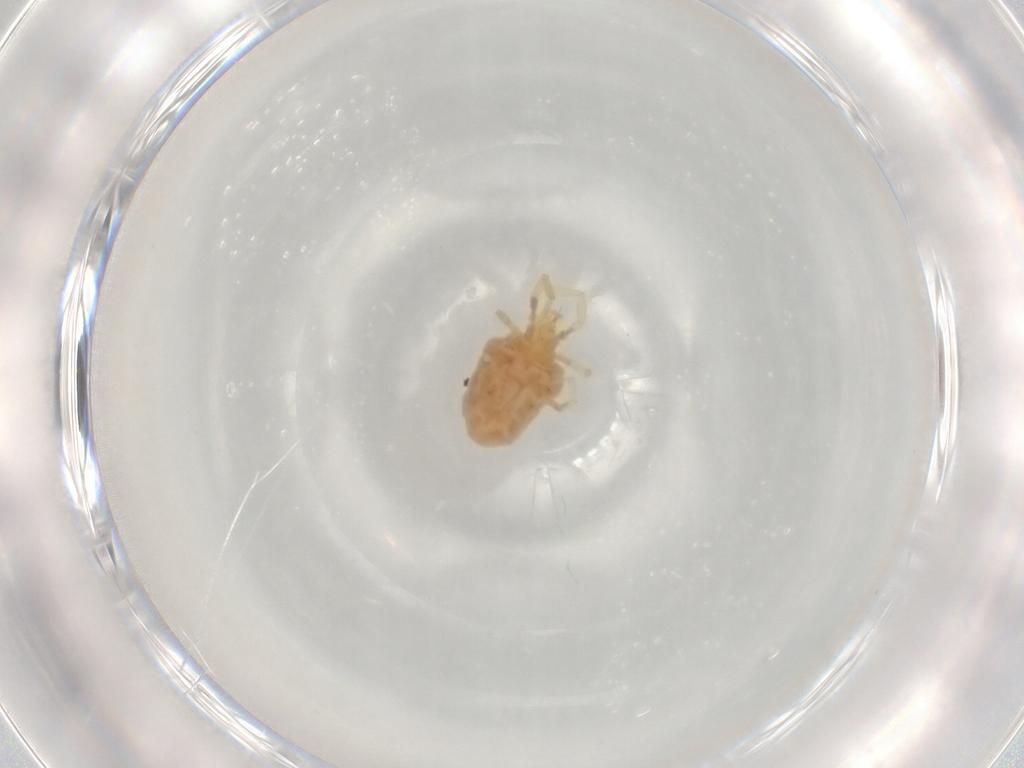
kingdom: Animalia
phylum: Arthropoda
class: Arachnida
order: Trombidiformes
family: Erythraeidae
